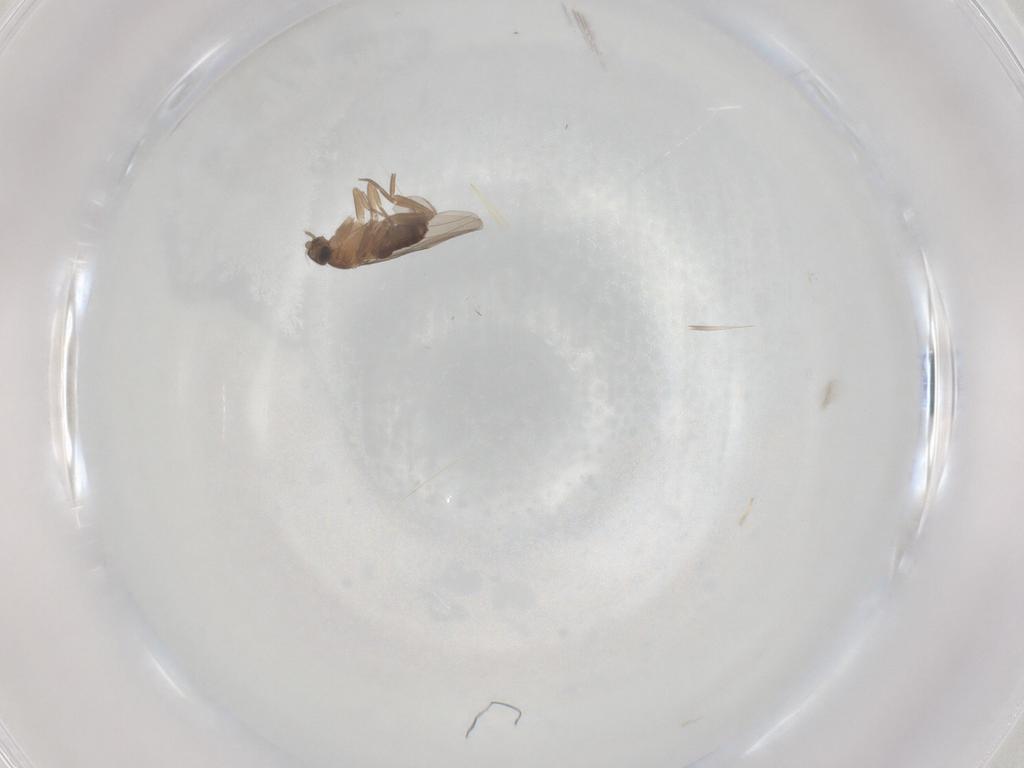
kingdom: Animalia
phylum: Arthropoda
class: Insecta
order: Diptera
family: Phoridae
